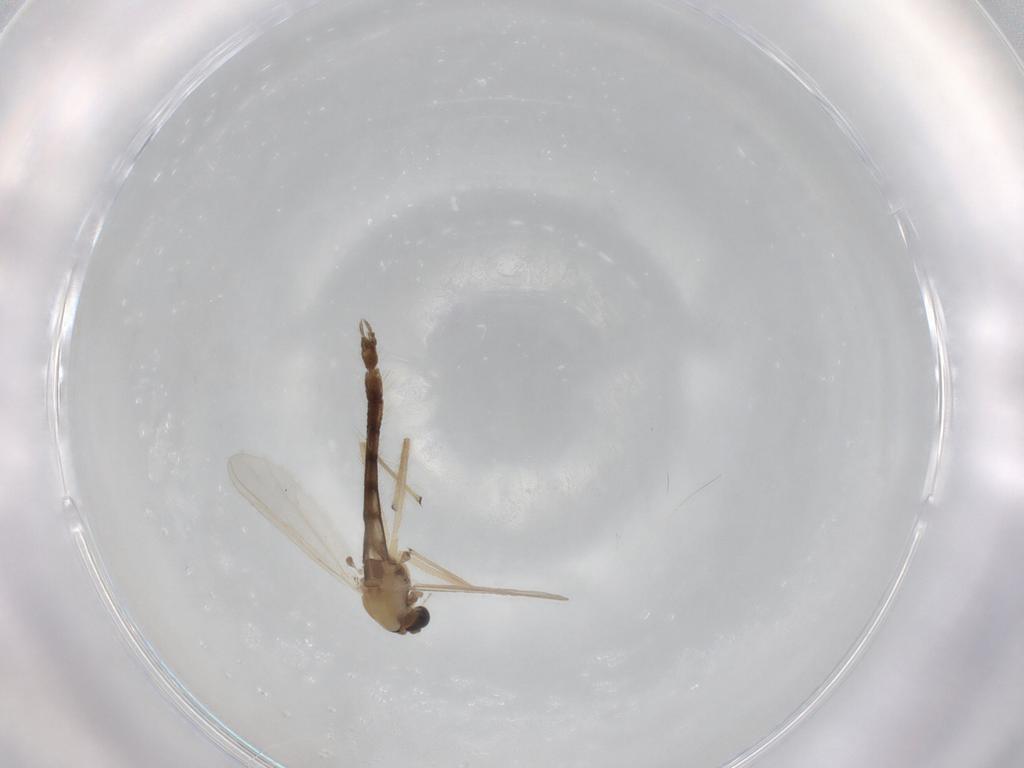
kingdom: Animalia
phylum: Arthropoda
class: Insecta
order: Diptera
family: Chironomidae
